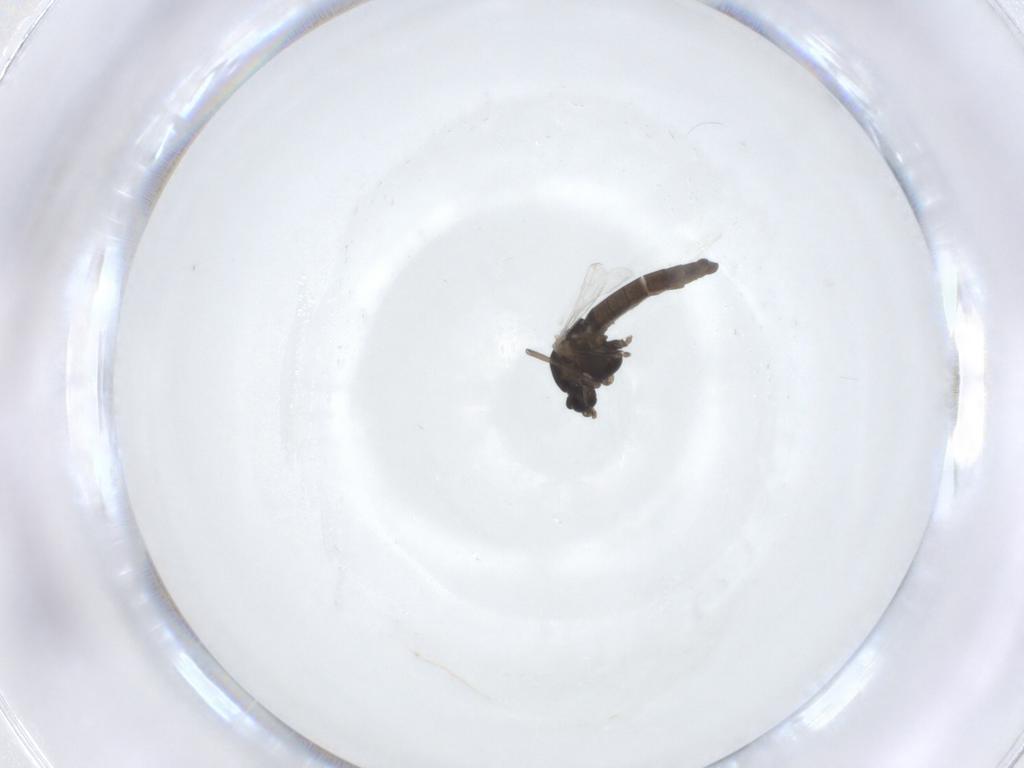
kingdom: Animalia
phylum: Arthropoda
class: Insecta
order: Diptera
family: Chironomidae
